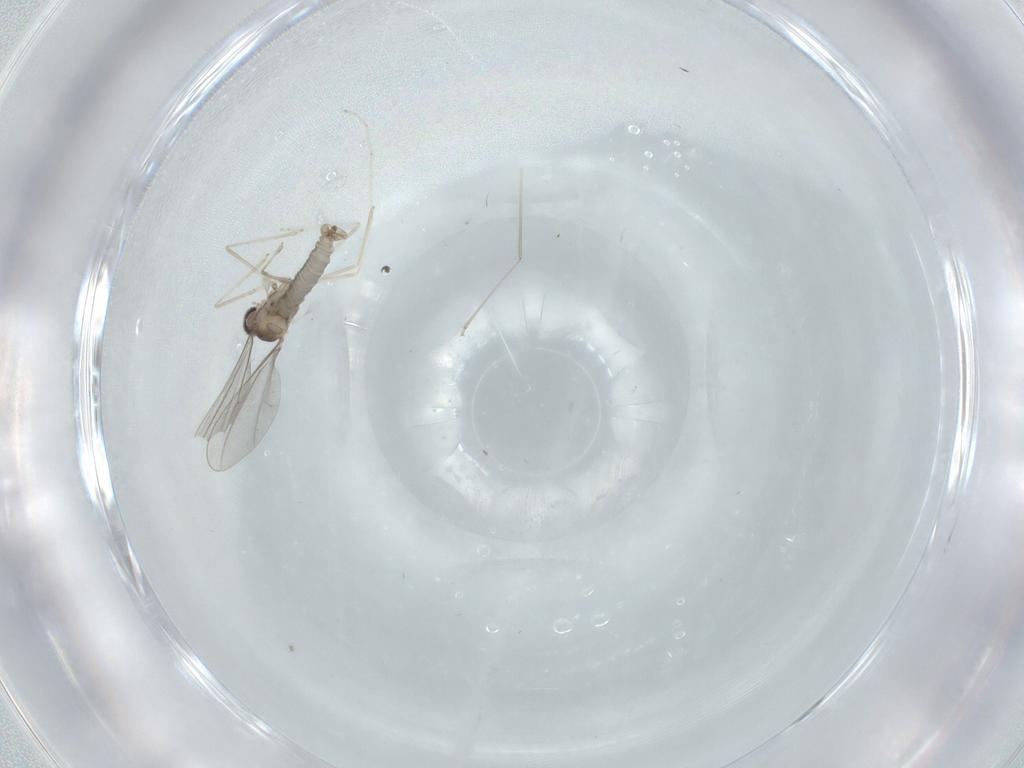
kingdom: Animalia
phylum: Arthropoda
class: Insecta
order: Diptera
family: Cecidomyiidae
